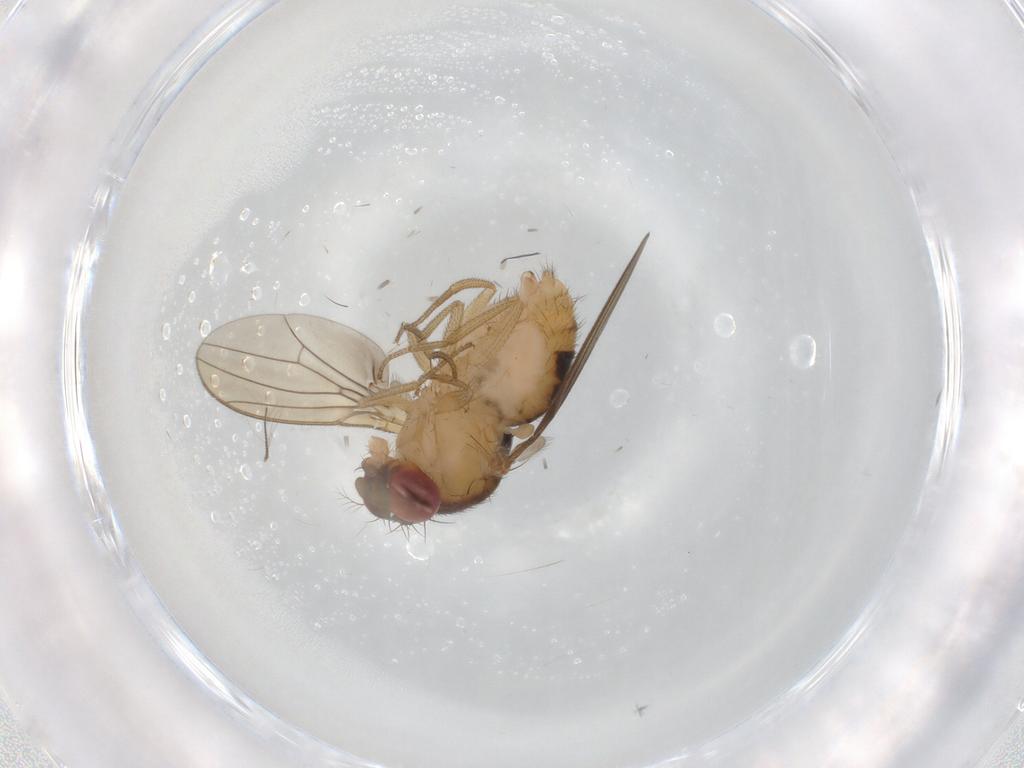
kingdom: Animalia
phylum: Arthropoda
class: Insecta
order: Diptera
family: Drosophilidae
